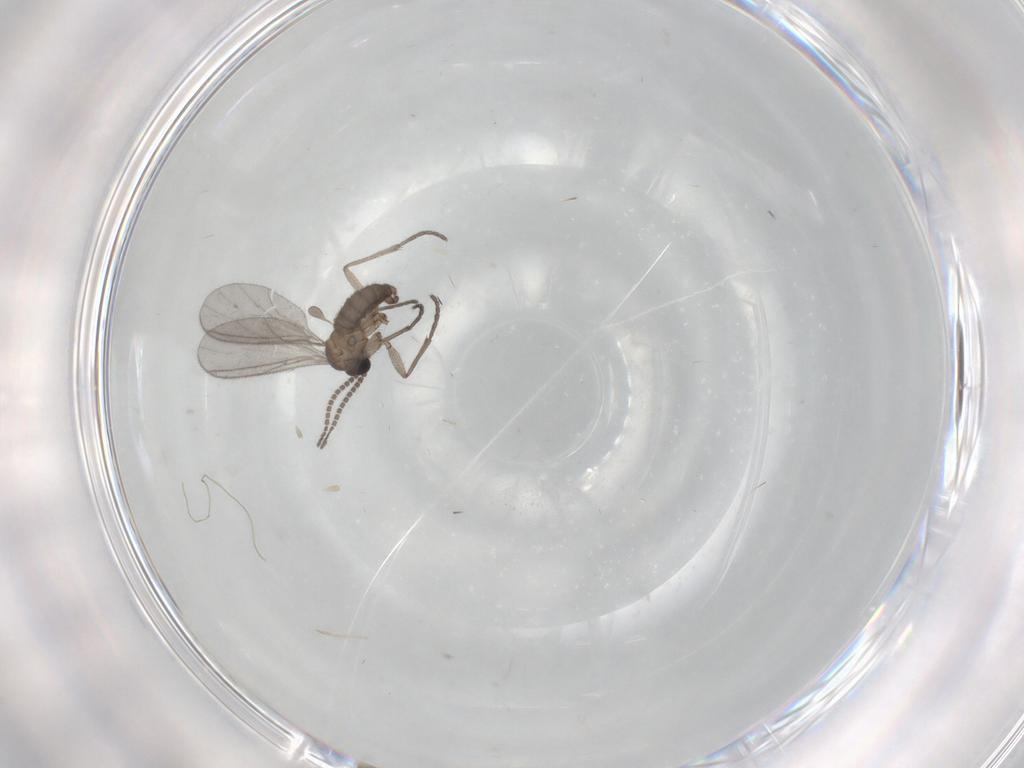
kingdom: Animalia
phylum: Arthropoda
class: Insecta
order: Diptera
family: Sciaridae
